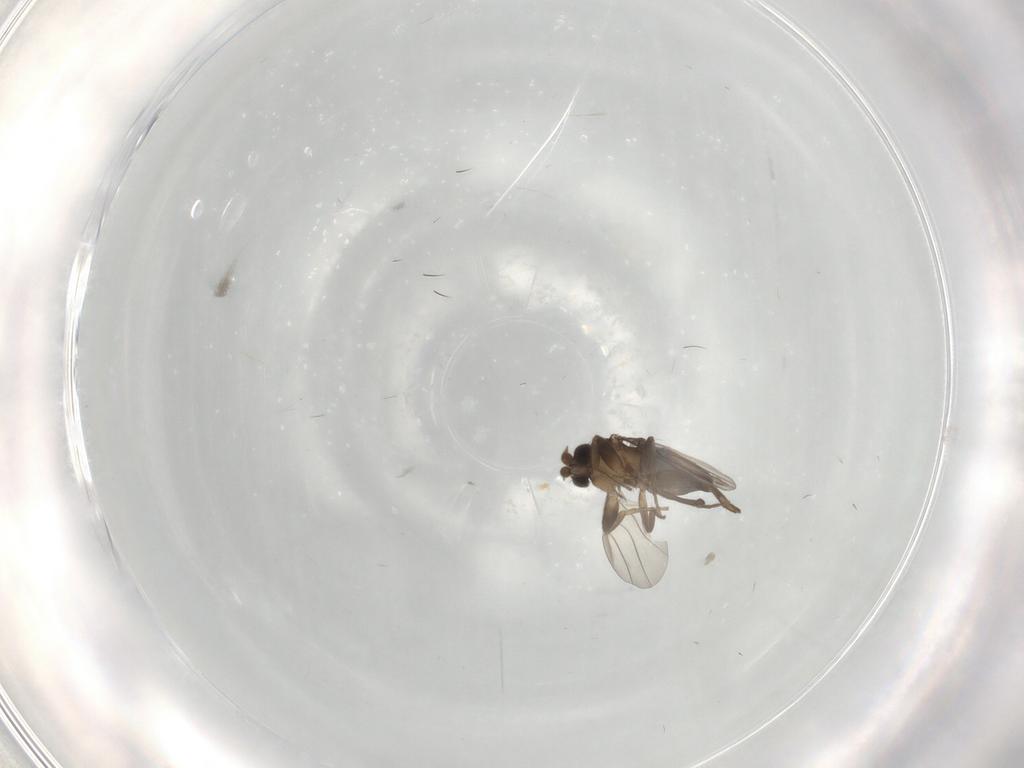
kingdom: Animalia
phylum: Arthropoda
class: Insecta
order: Diptera
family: Phoridae
